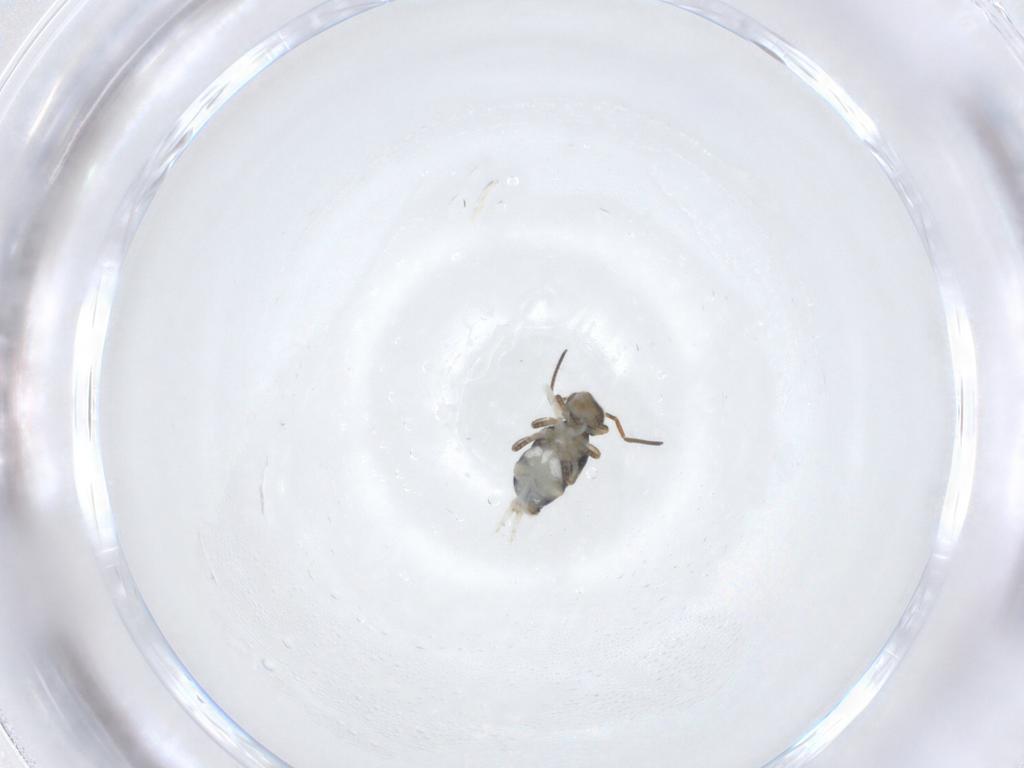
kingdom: Animalia
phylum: Arthropoda
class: Collembola
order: Symphypleona
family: Katiannidae
